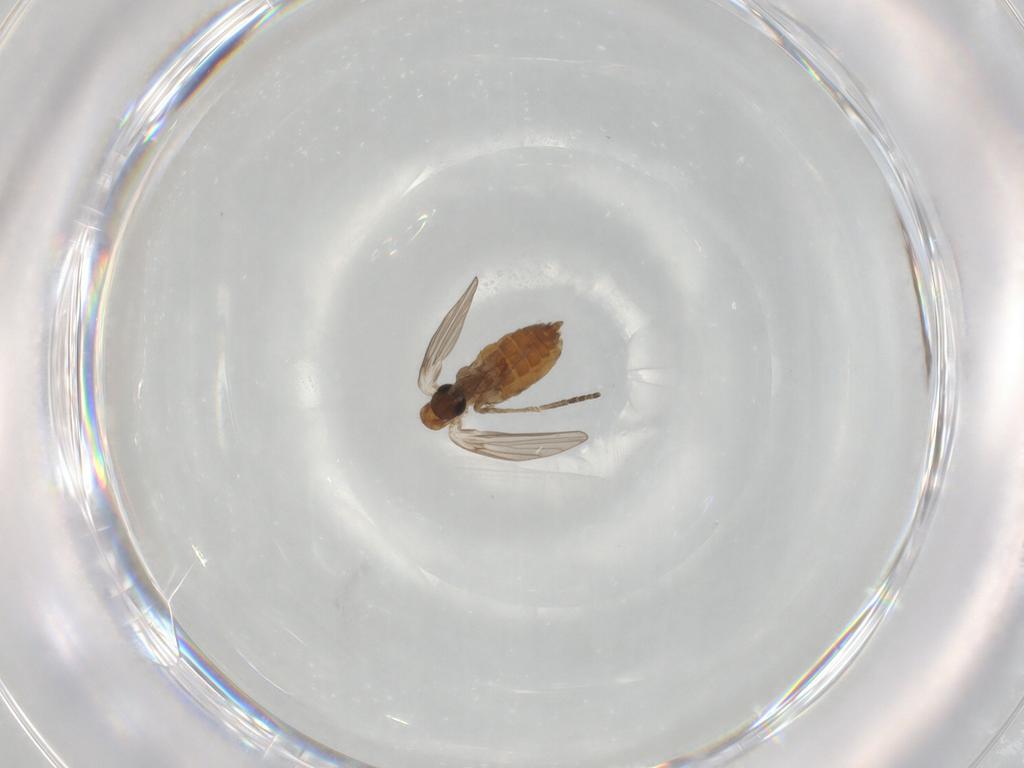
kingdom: Animalia
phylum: Arthropoda
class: Insecta
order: Diptera
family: Psychodidae
